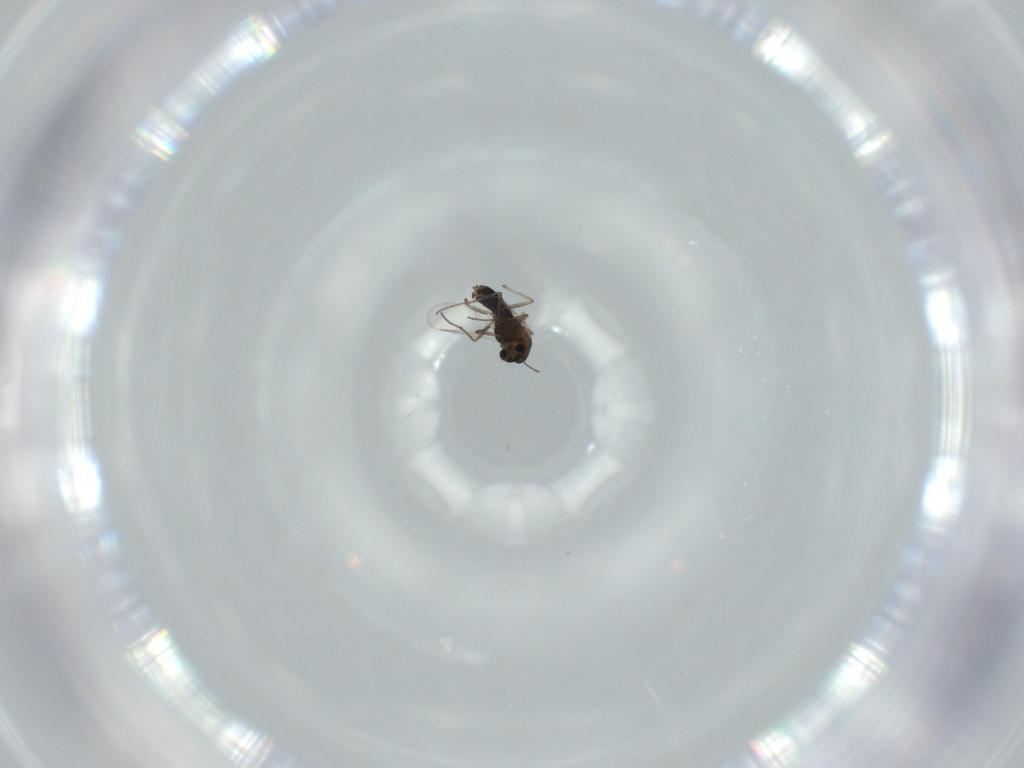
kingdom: Animalia
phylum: Arthropoda
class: Insecta
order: Diptera
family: Chironomidae
